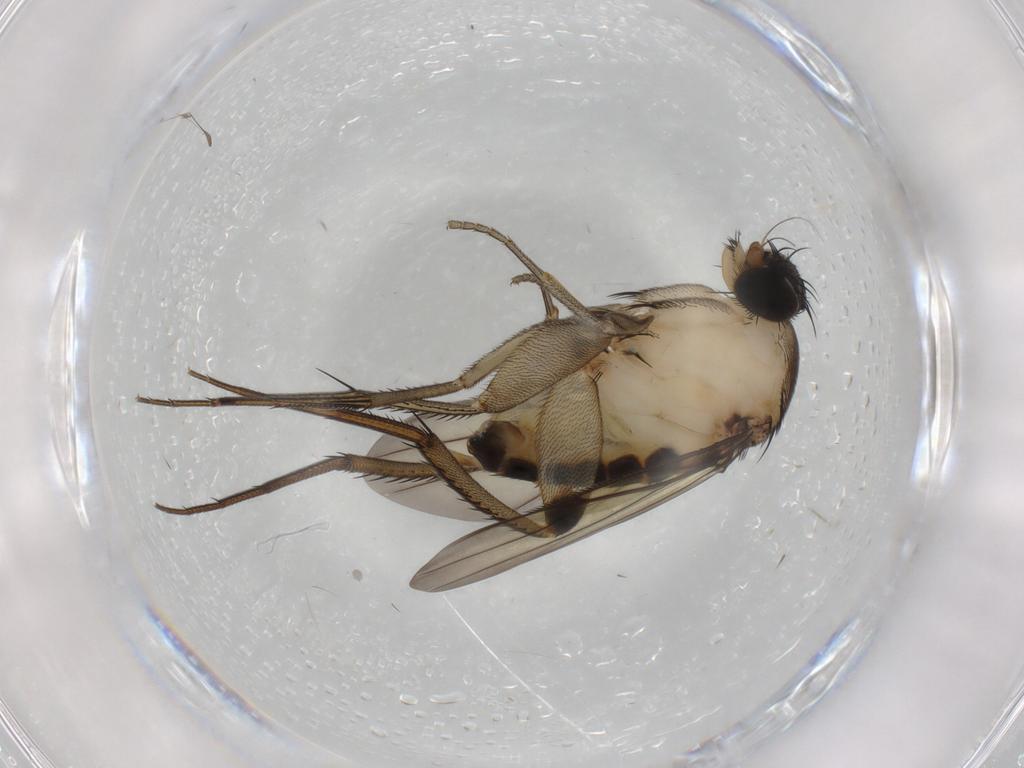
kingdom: Animalia
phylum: Arthropoda
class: Insecta
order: Diptera
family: Phoridae
